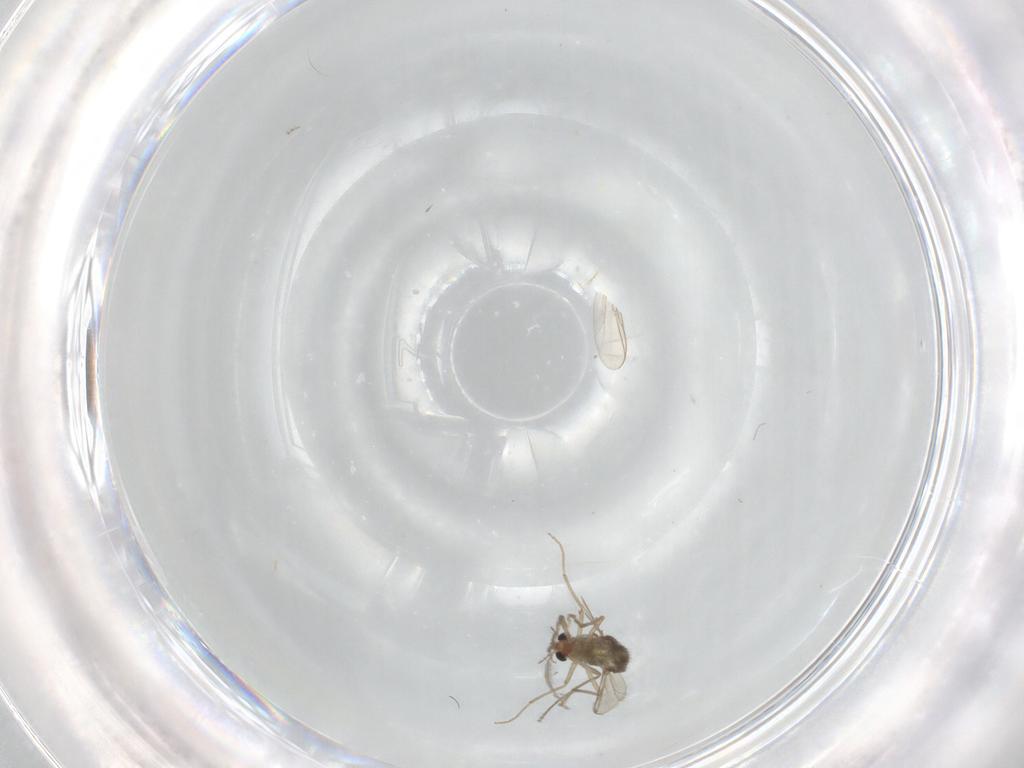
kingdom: Animalia
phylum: Arthropoda
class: Insecta
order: Diptera
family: Chironomidae
